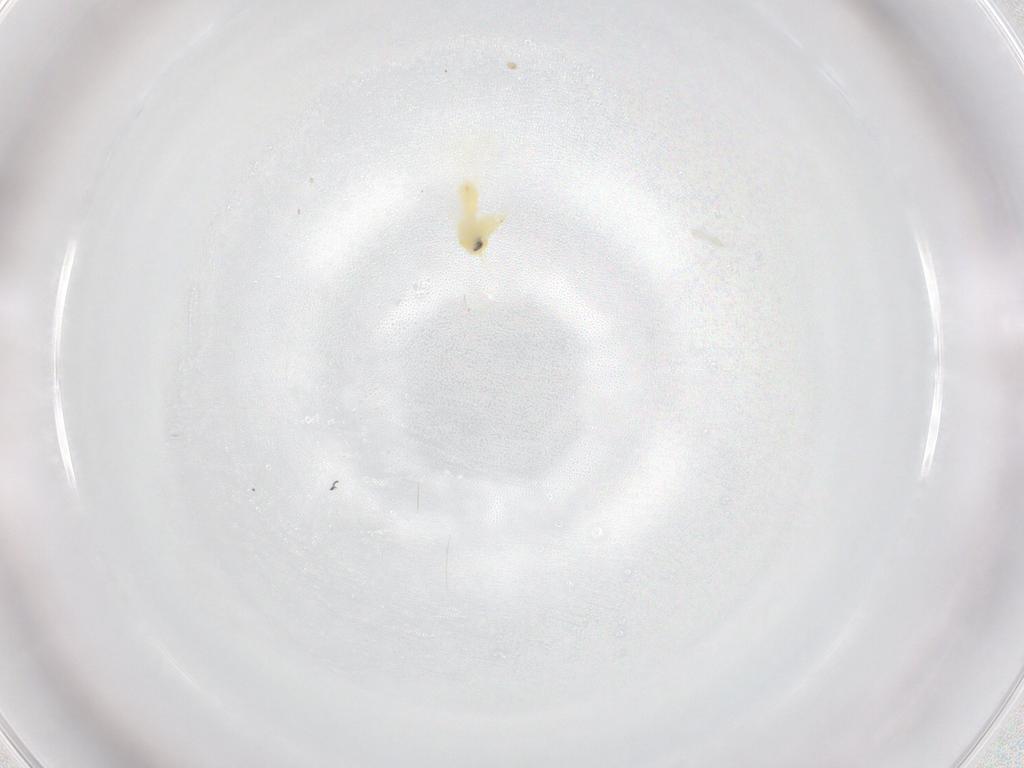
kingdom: Animalia
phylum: Arthropoda
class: Insecta
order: Hemiptera
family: Aleyrodidae
